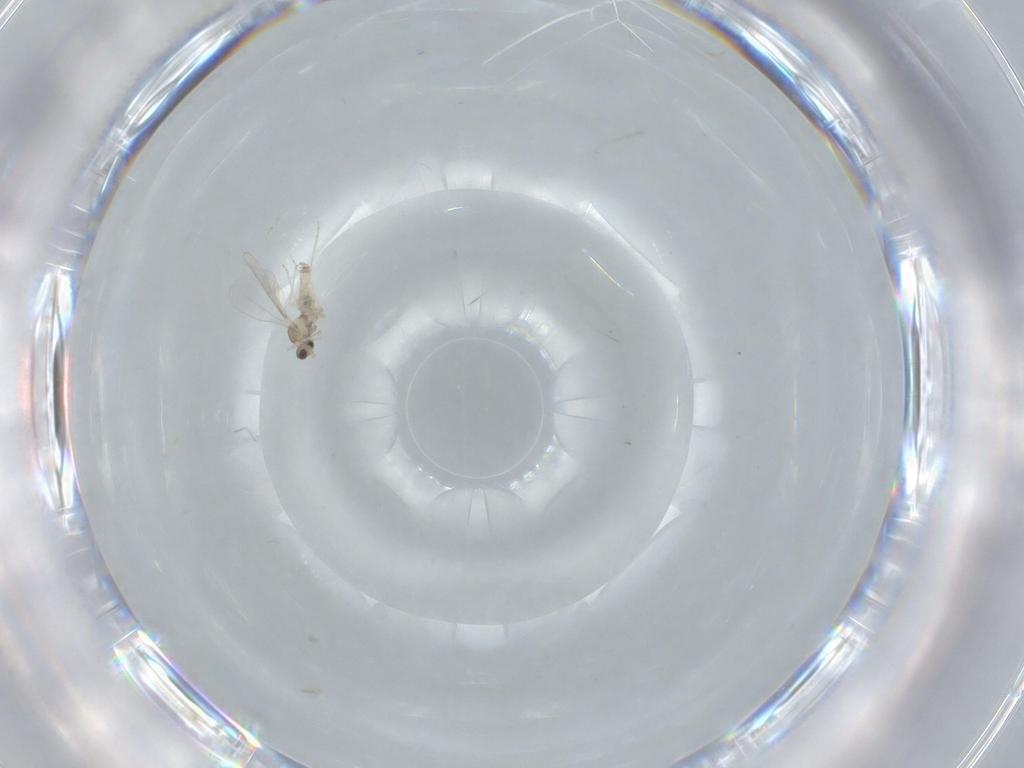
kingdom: Animalia
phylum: Arthropoda
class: Insecta
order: Diptera
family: Cecidomyiidae
